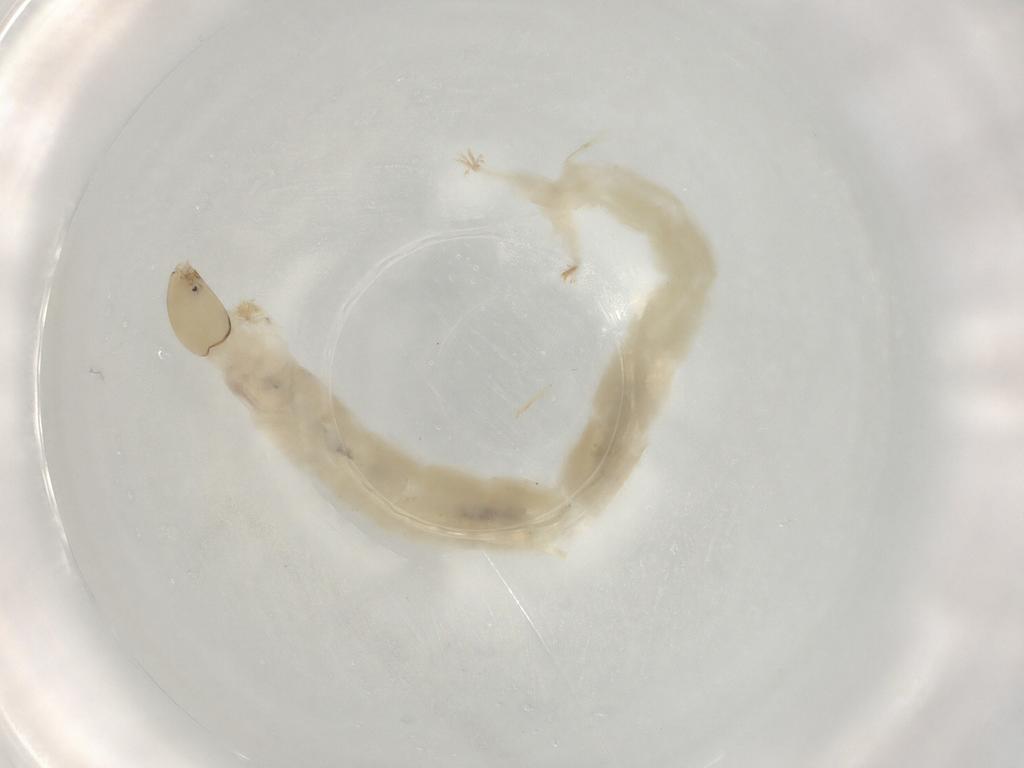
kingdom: Animalia
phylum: Arthropoda
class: Insecta
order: Diptera
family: Chironomidae
